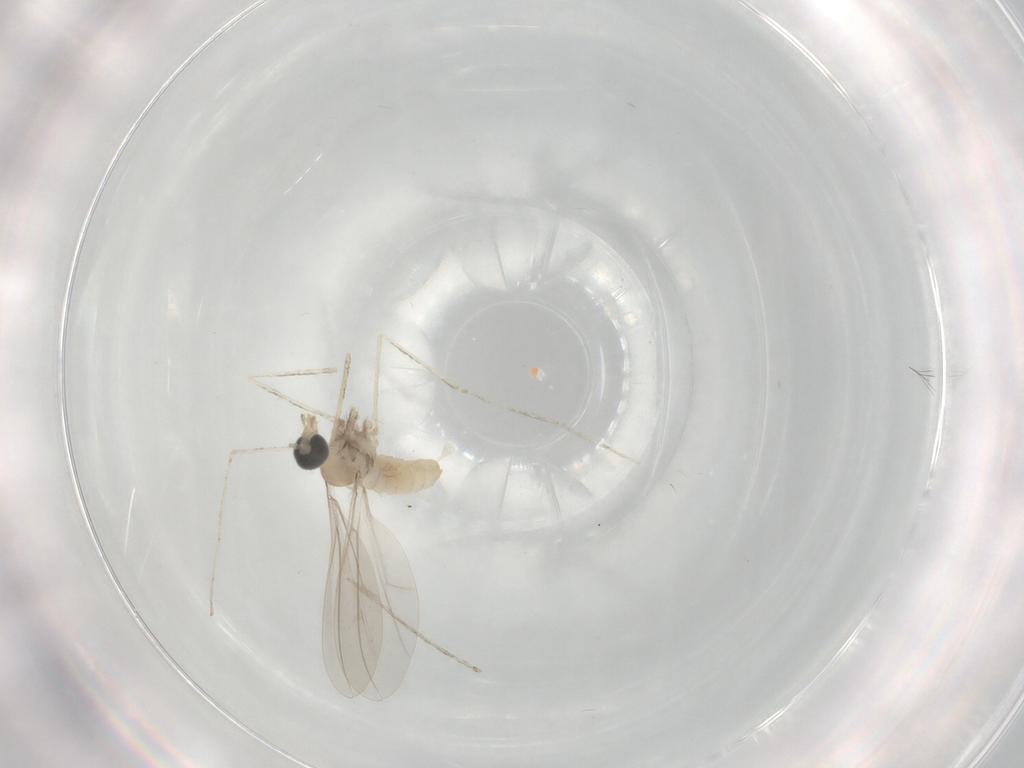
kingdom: Animalia
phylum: Arthropoda
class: Insecta
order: Diptera
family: Cecidomyiidae
